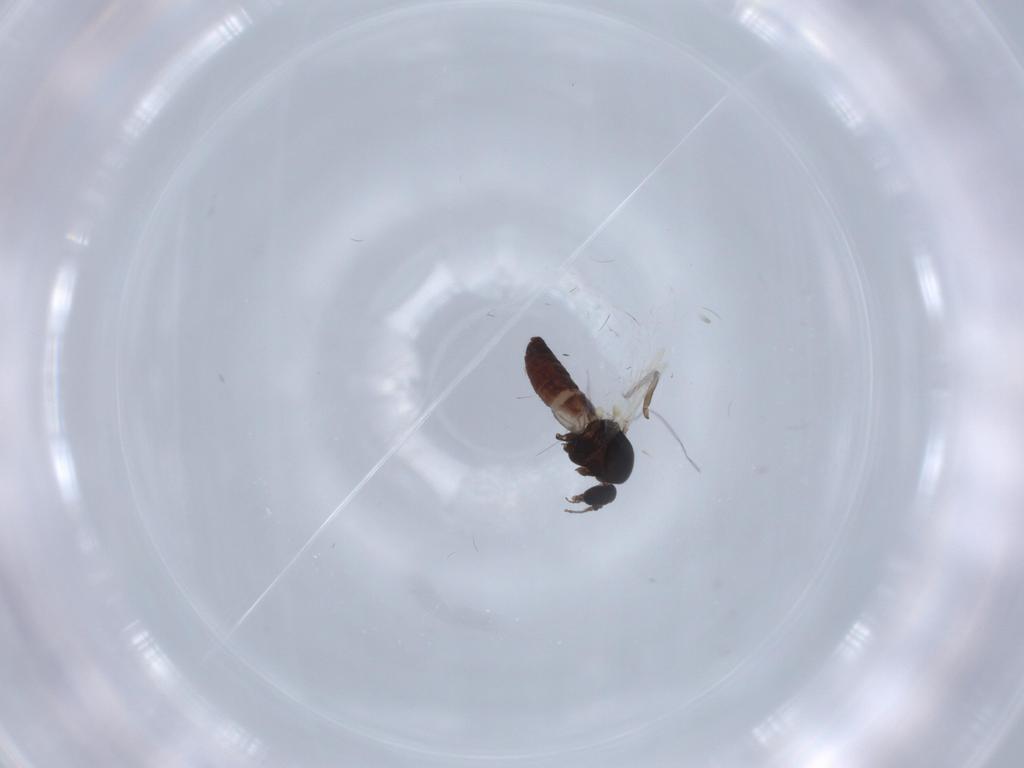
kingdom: Animalia
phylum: Arthropoda
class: Insecta
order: Diptera
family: Ceratopogonidae
